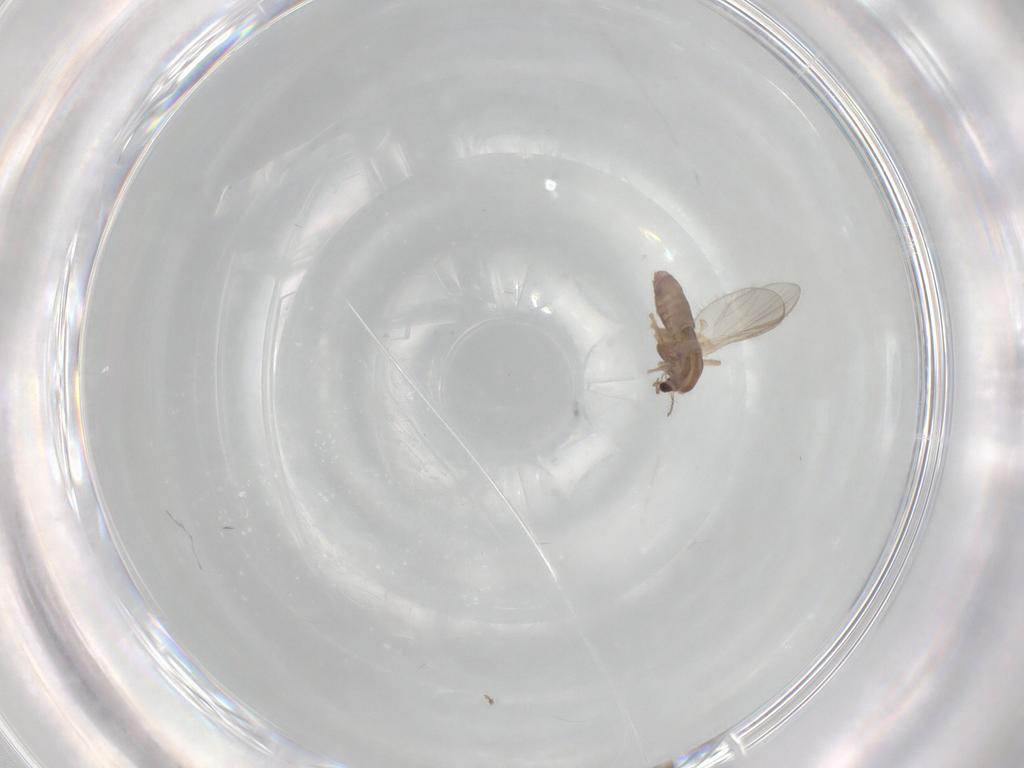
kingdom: Animalia
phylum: Arthropoda
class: Insecta
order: Diptera
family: Chironomidae
